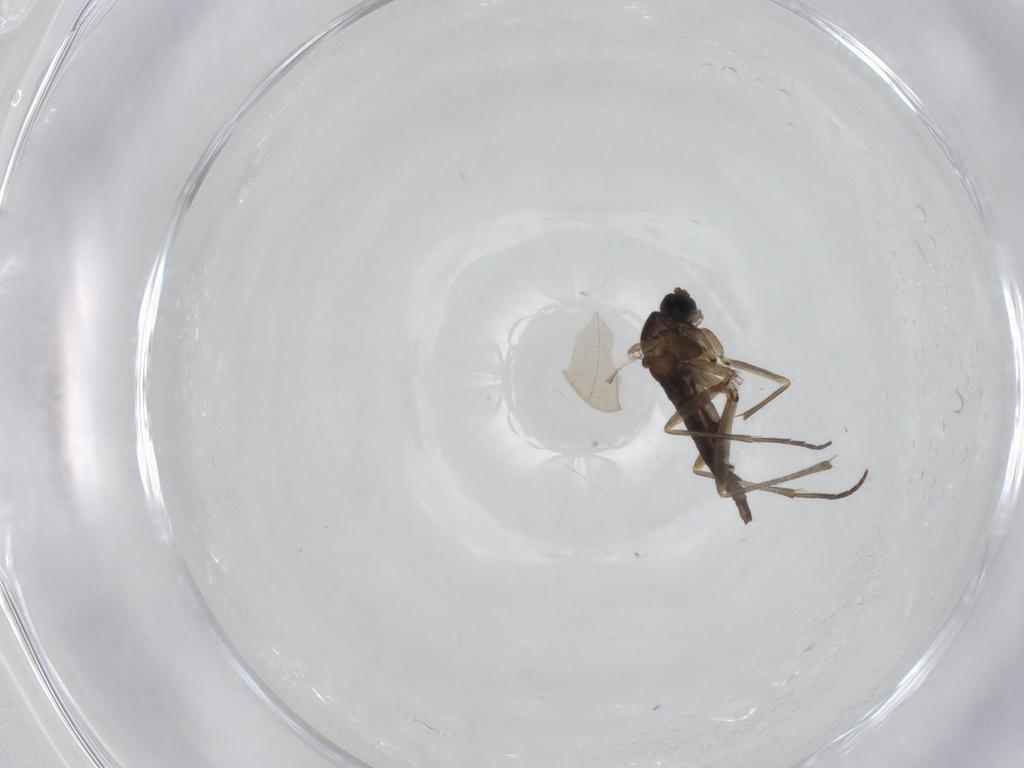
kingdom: Animalia
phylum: Arthropoda
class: Insecta
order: Diptera
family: Sciaridae
